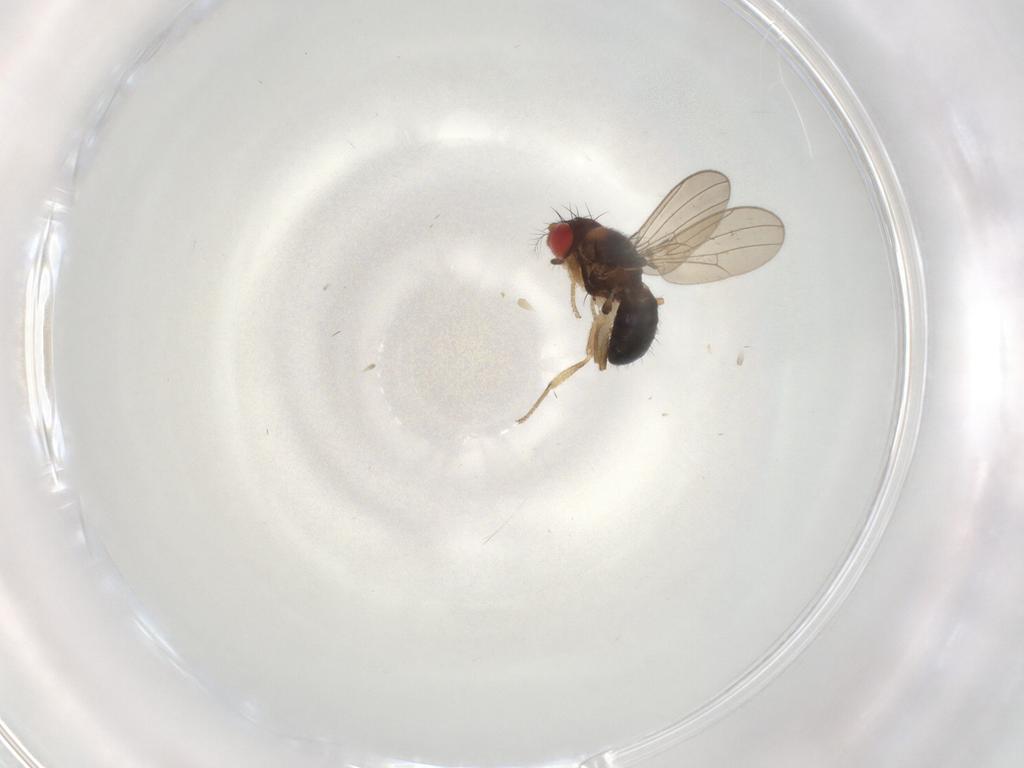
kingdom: Animalia
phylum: Arthropoda
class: Insecta
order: Diptera
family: Drosophilidae
